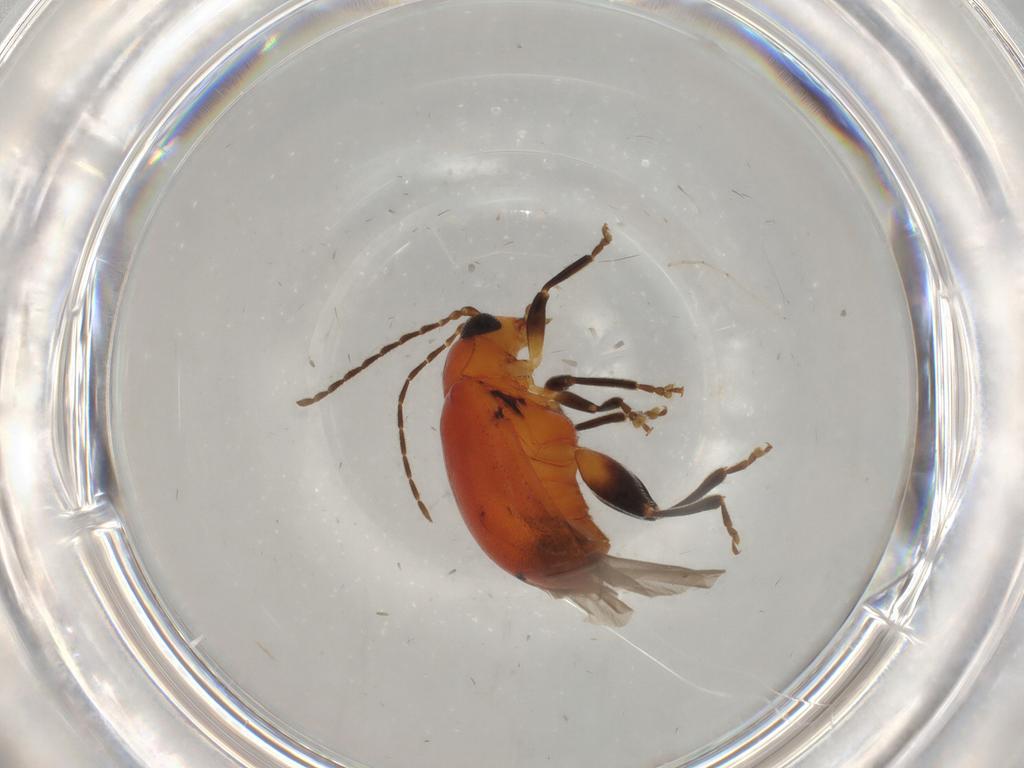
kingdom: Animalia
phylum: Arthropoda
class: Insecta
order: Coleoptera
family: Chrysomelidae
